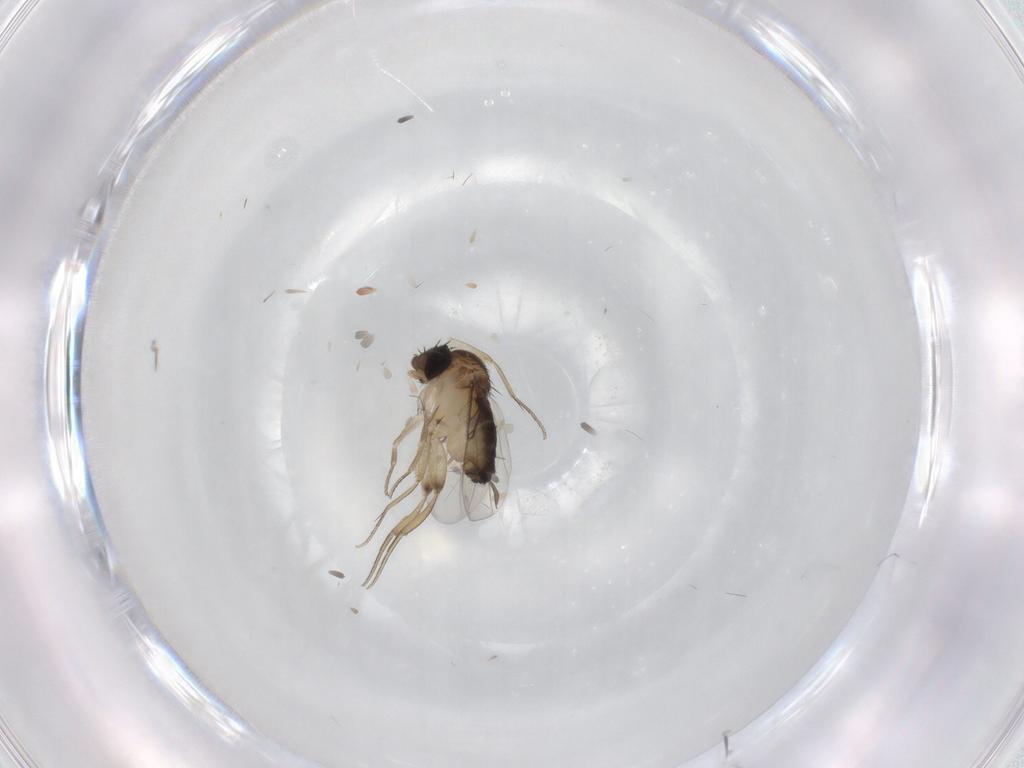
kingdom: Animalia
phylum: Arthropoda
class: Insecta
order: Diptera
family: Phoridae
